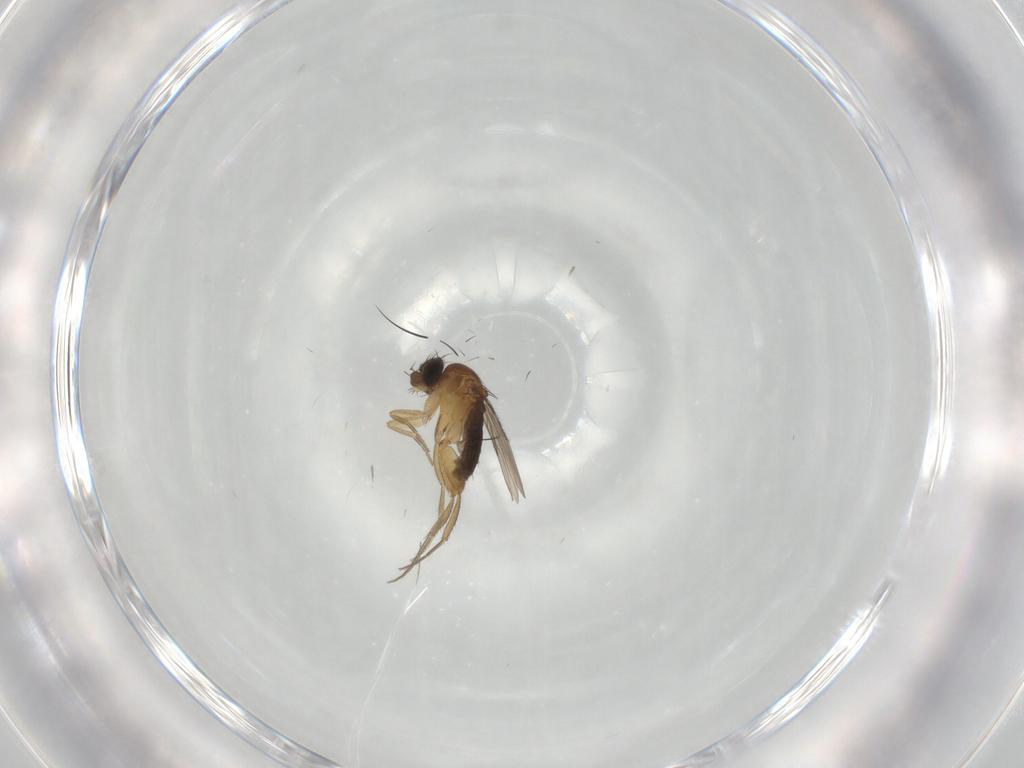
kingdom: Animalia
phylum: Arthropoda
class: Insecta
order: Diptera
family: Phoridae
